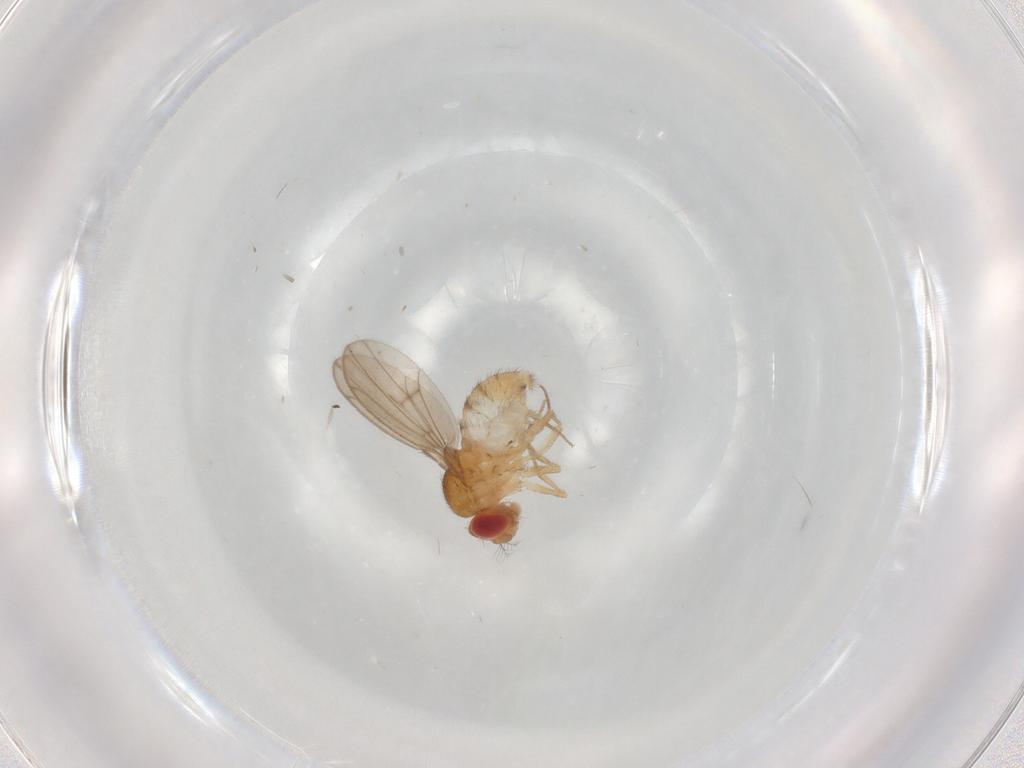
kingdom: Animalia
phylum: Arthropoda
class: Insecta
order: Diptera
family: Drosophilidae
